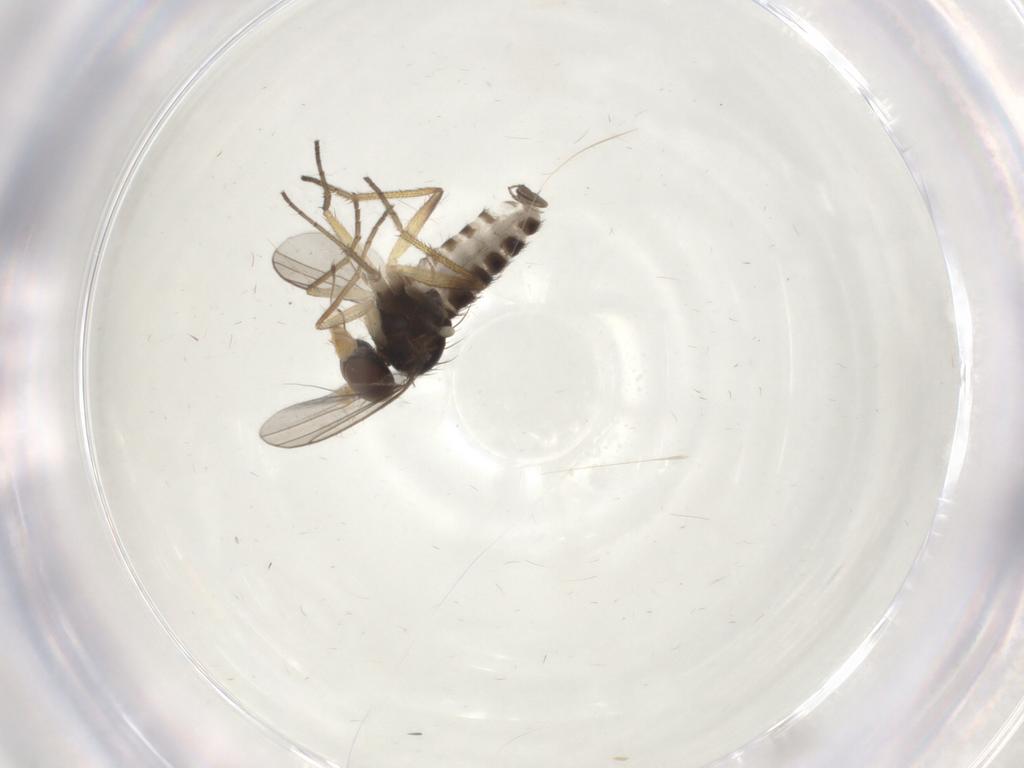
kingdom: Animalia
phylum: Arthropoda
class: Insecta
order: Diptera
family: Dolichopodidae
